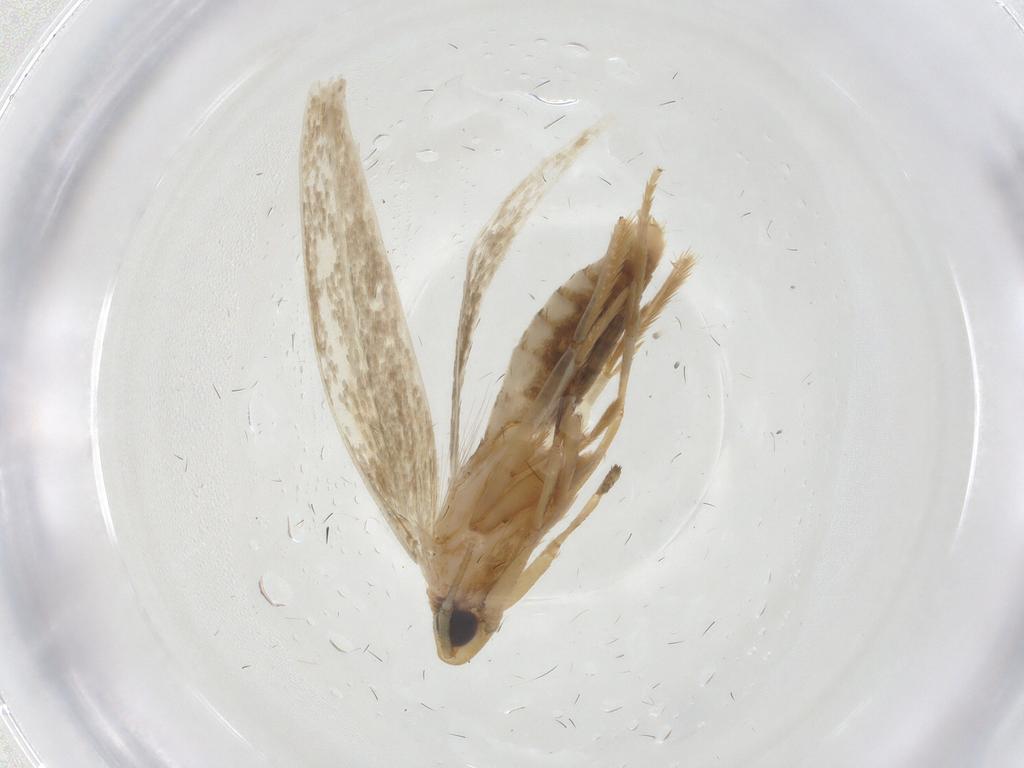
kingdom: Animalia
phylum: Arthropoda
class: Insecta
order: Lepidoptera
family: Tineidae
